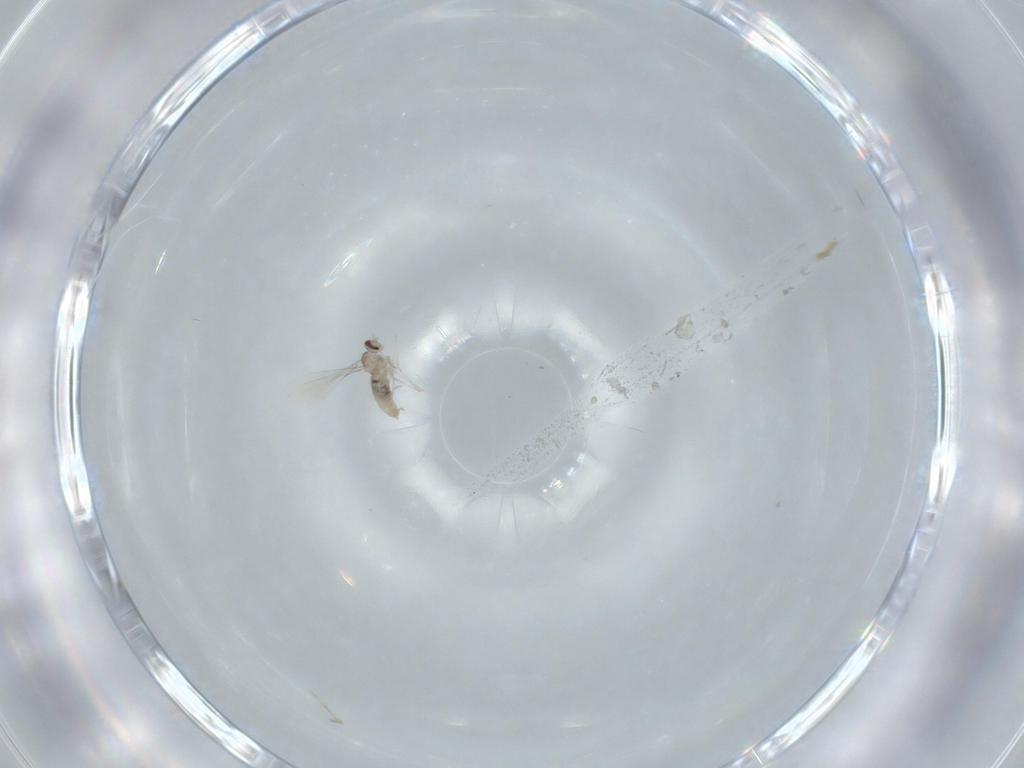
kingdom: Animalia
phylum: Arthropoda
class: Insecta
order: Diptera
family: Cecidomyiidae
